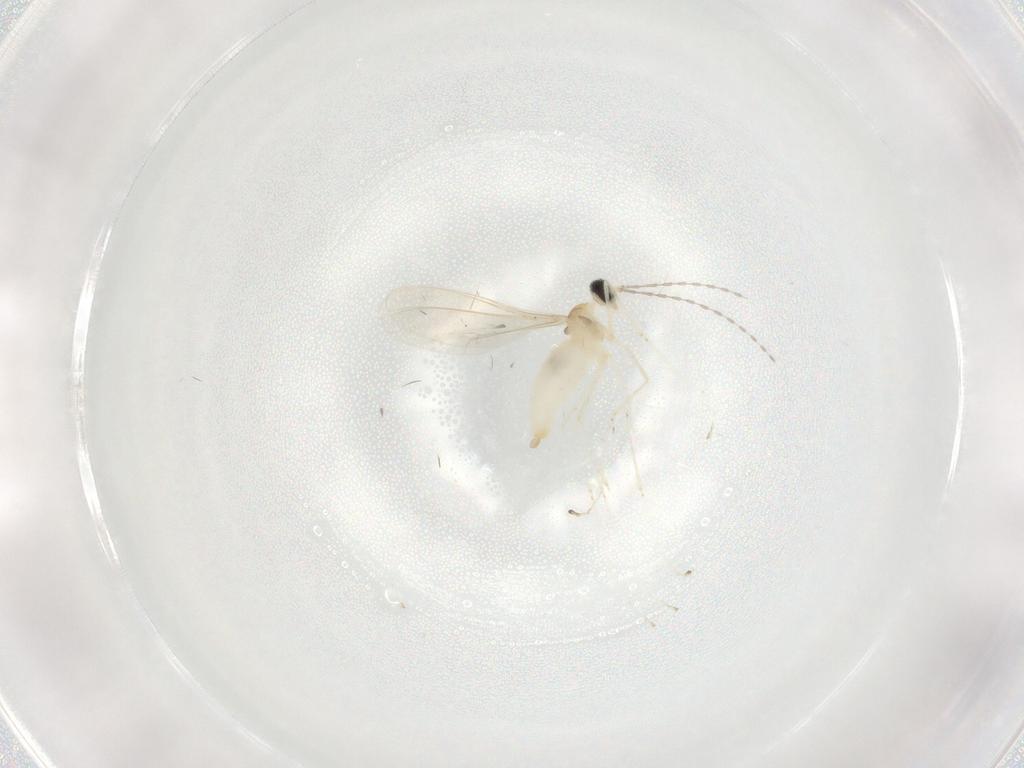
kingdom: Animalia
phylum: Arthropoda
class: Insecta
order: Diptera
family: Cecidomyiidae
